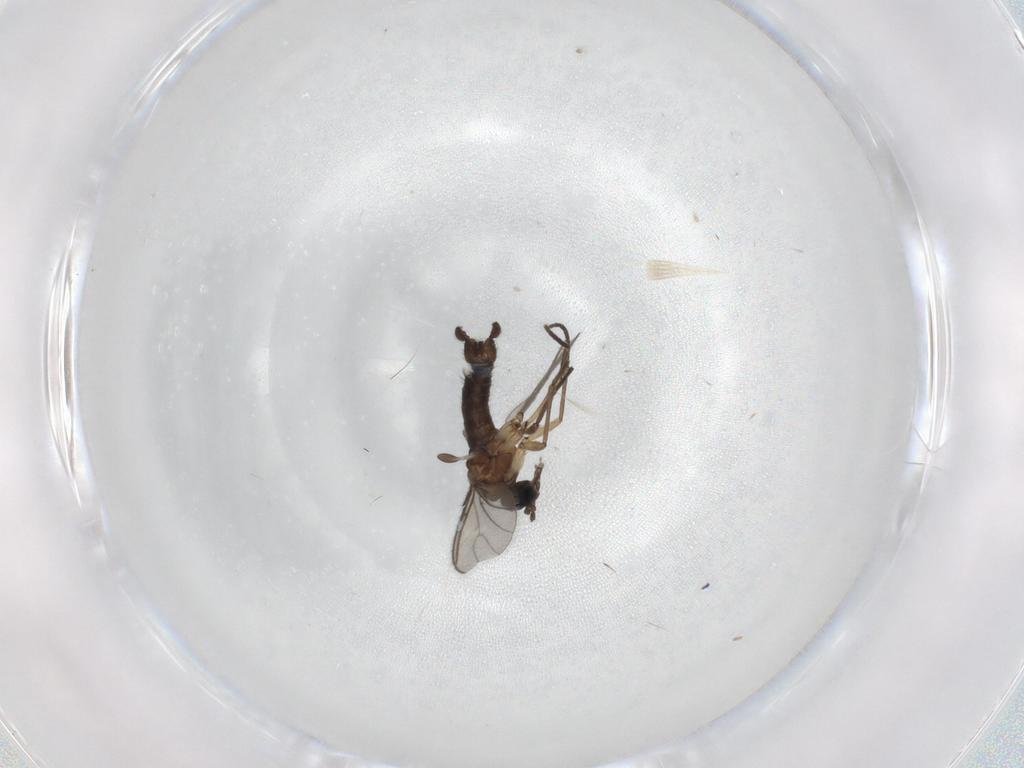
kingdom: Animalia
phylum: Arthropoda
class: Insecta
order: Diptera
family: Sciaridae
